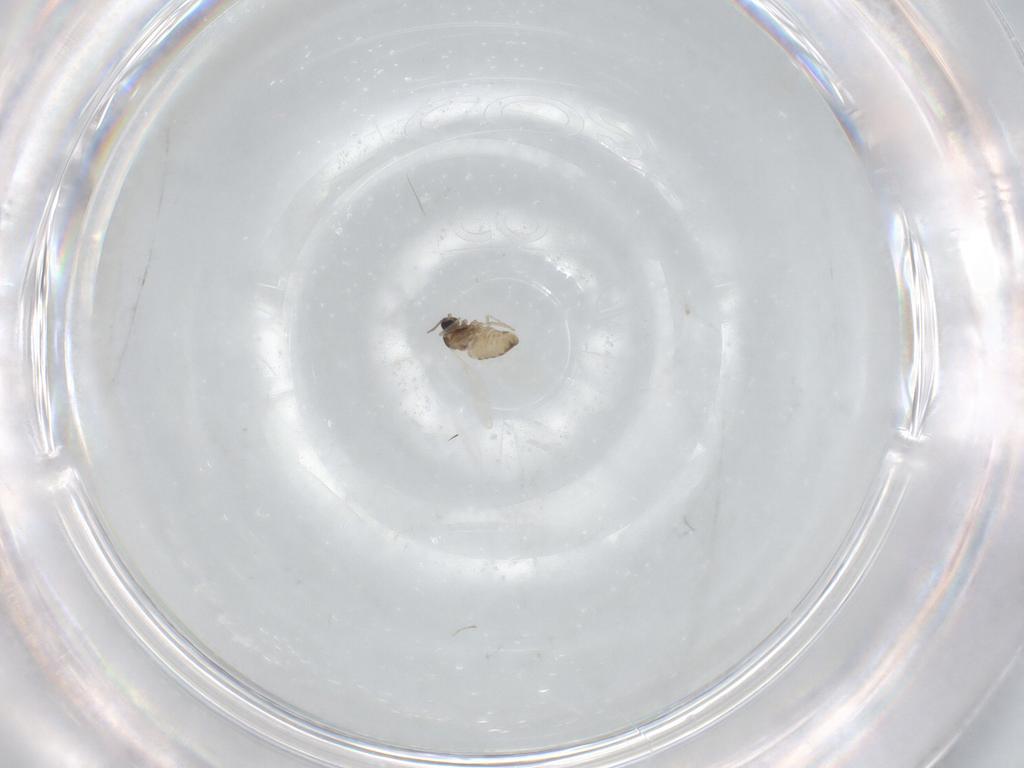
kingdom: Animalia
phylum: Arthropoda
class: Insecta
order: Diptera
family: Cecidomyiidae
